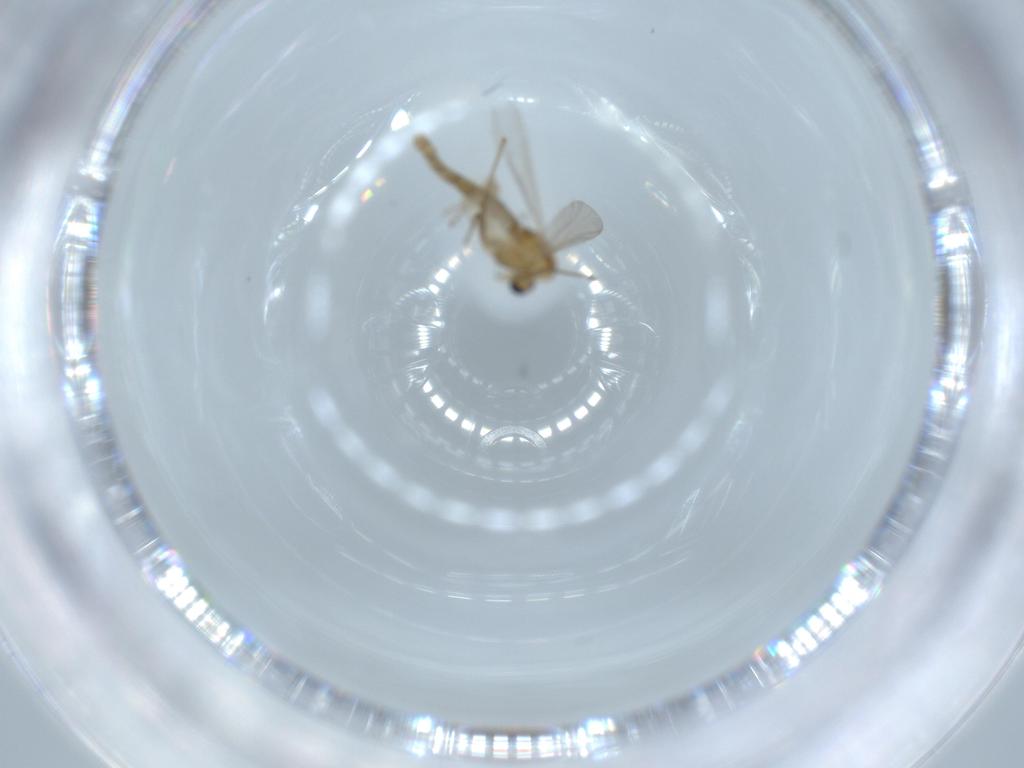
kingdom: Animalia
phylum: Arthropoda
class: Insecta
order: Diptera
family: Chironomidae
